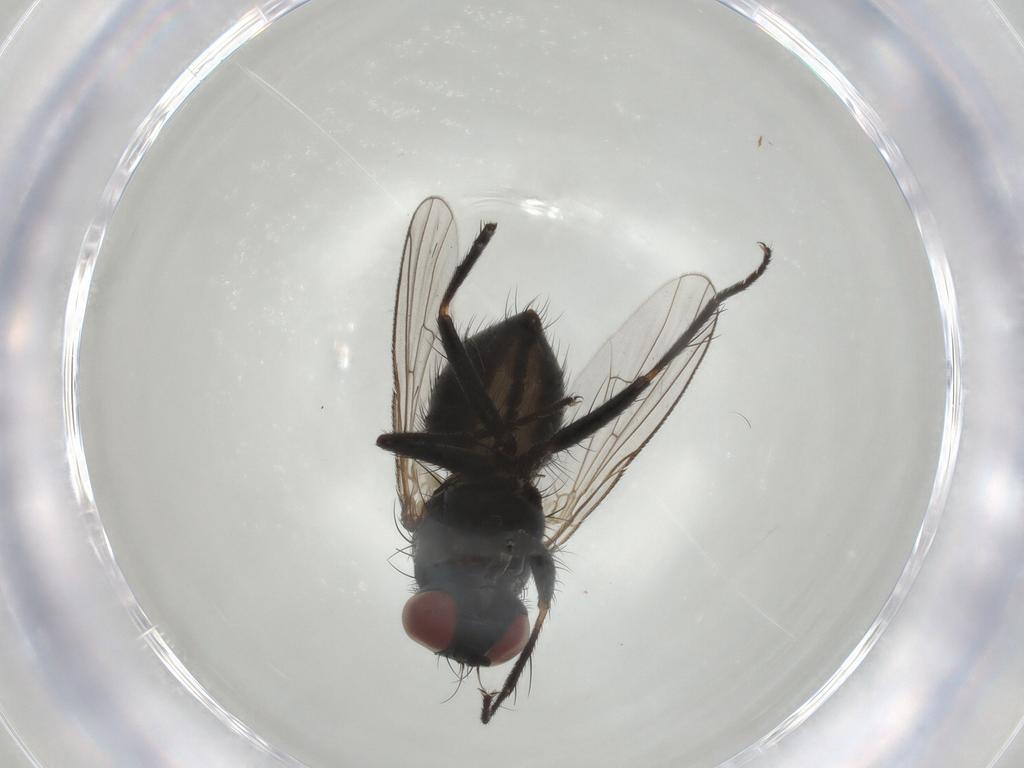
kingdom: Animalia
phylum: Arthropoda
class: Insecta
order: Diptera
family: Muscidae
